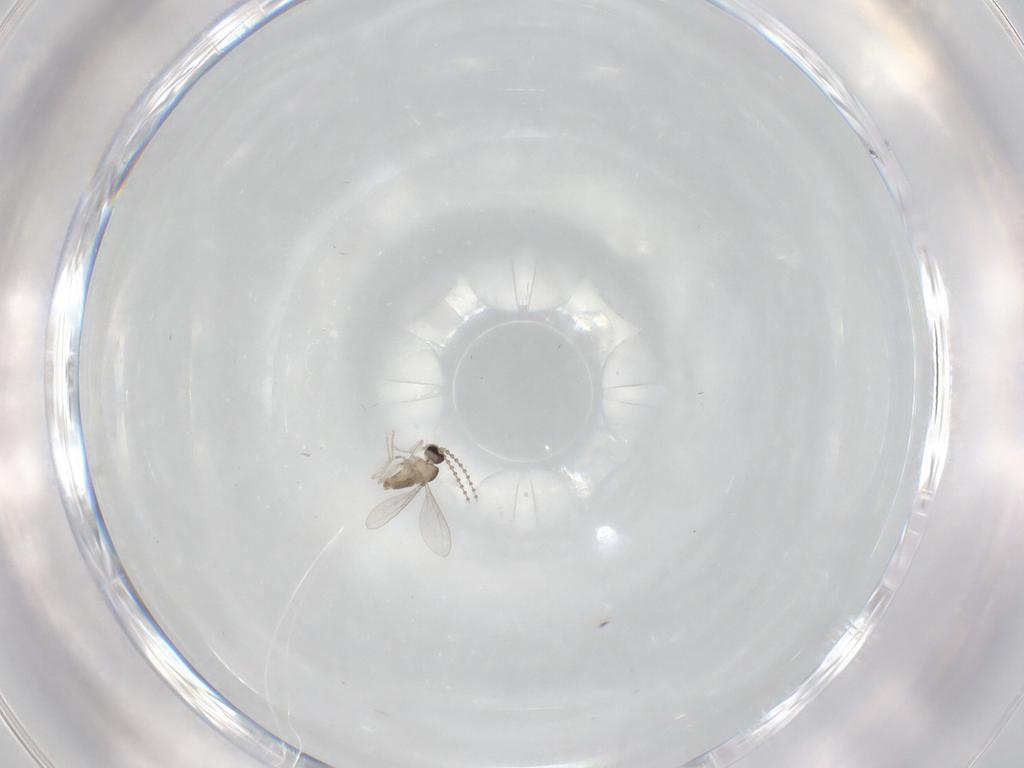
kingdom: Animalia
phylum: Arthropoda
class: Insecta
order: Diptera
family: Cecidomyiidae
